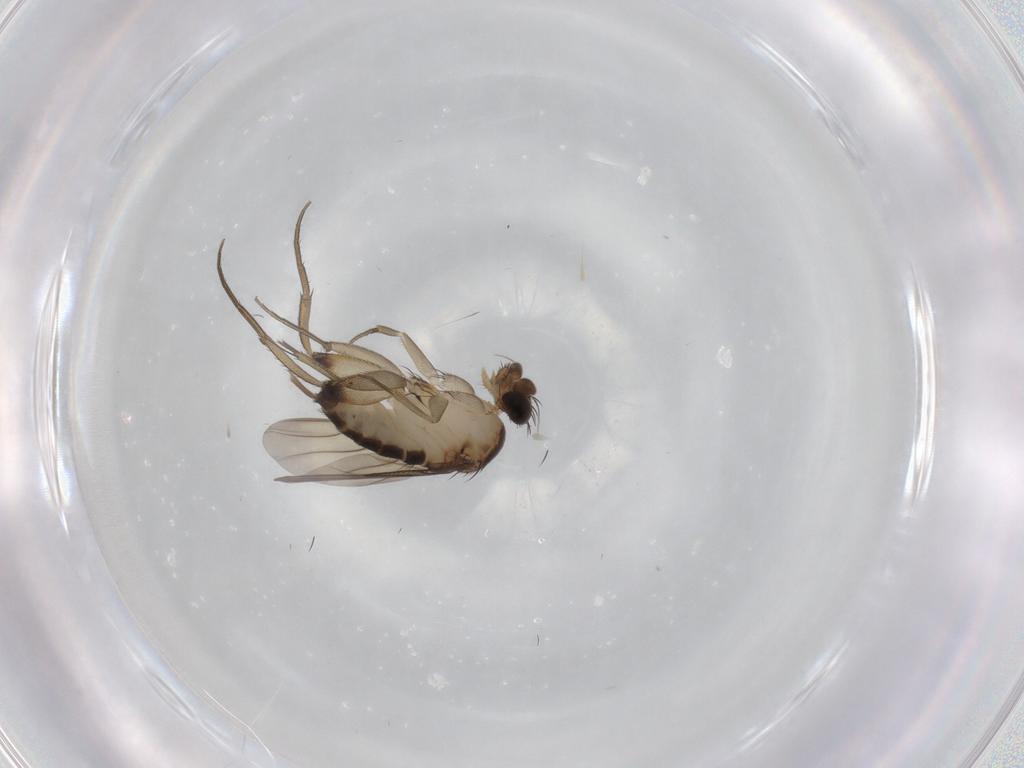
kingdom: Animalia
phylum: Arthropoda
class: Insecta
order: Diptera
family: Phoridae
